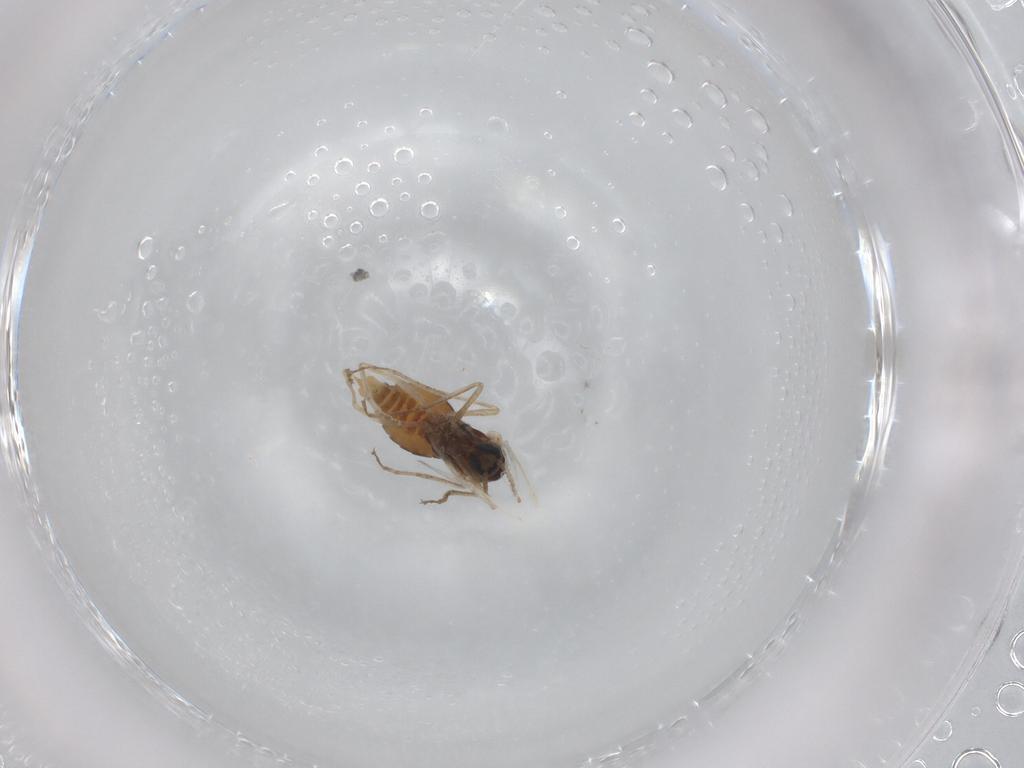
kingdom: Animalia
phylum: Arthropoda
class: Insecta
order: Diptera
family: Cecidomyiidae
